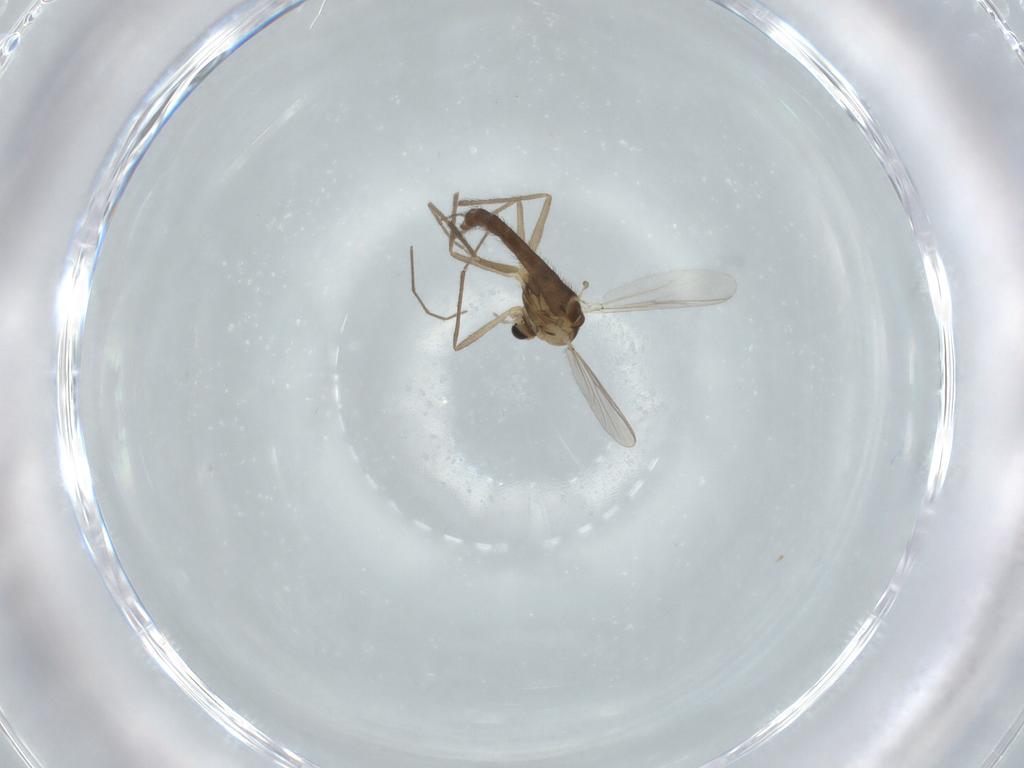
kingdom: Animalia
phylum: Arthropoda
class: Insecta
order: Diptera
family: Chironomidae
